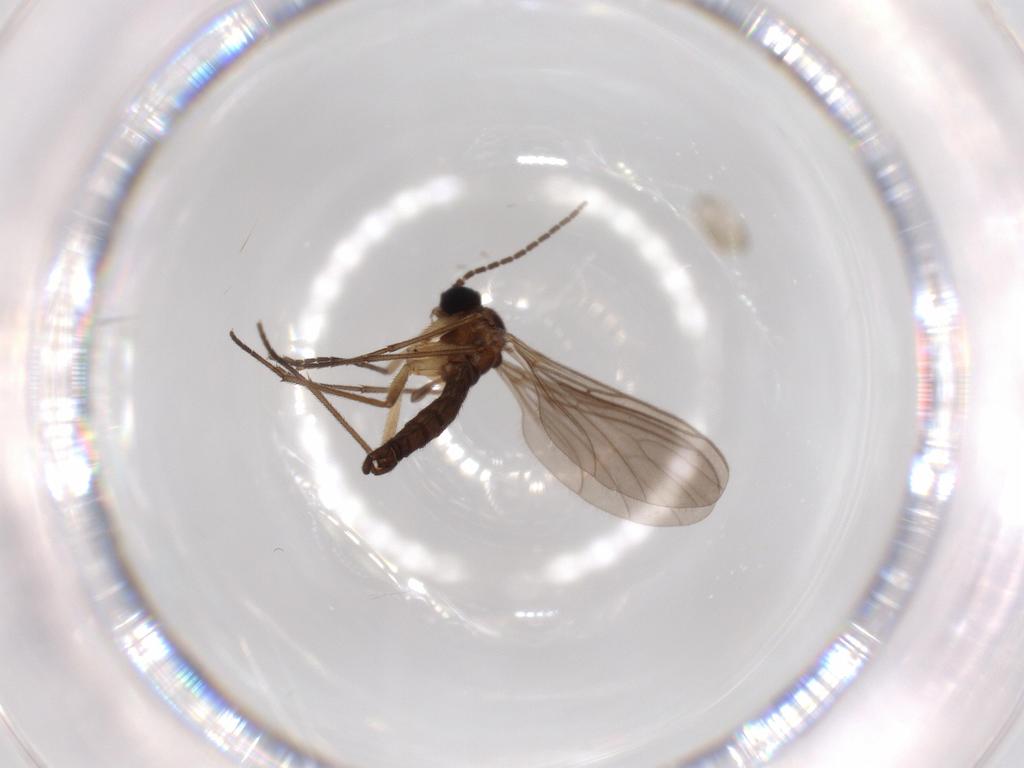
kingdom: Animalia
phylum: Arthropoda
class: Insecta
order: Diptera
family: Sciaridae
